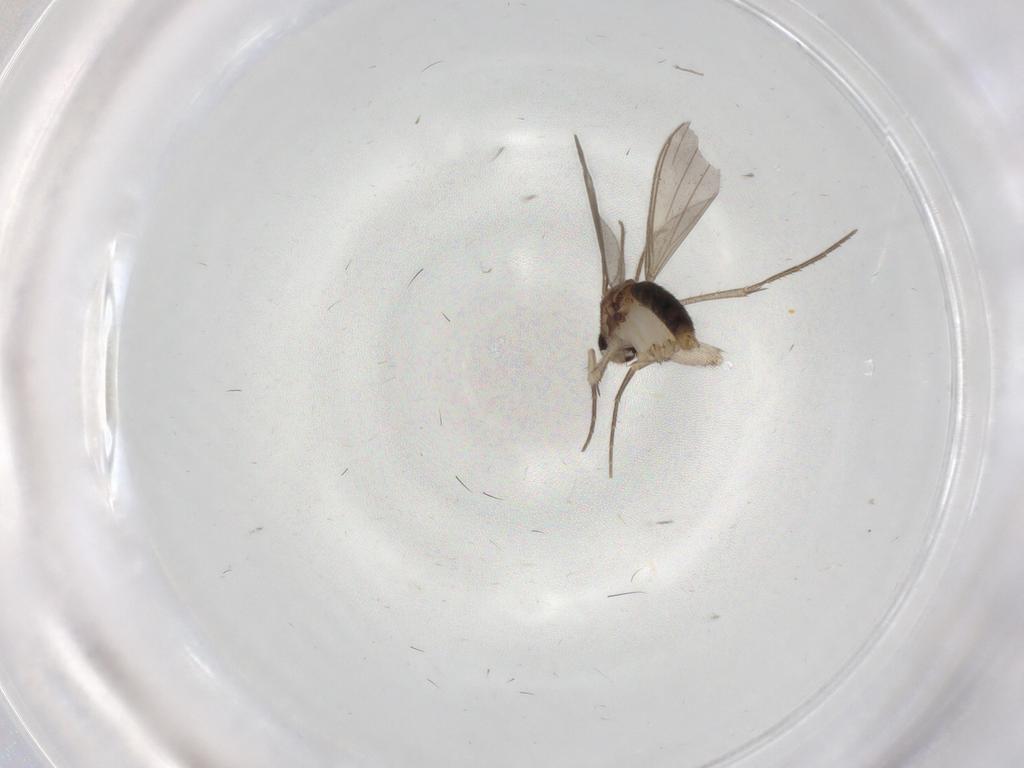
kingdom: Animalia
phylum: Arthropoda
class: Insecta
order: Diptera
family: Mycetophilidae
